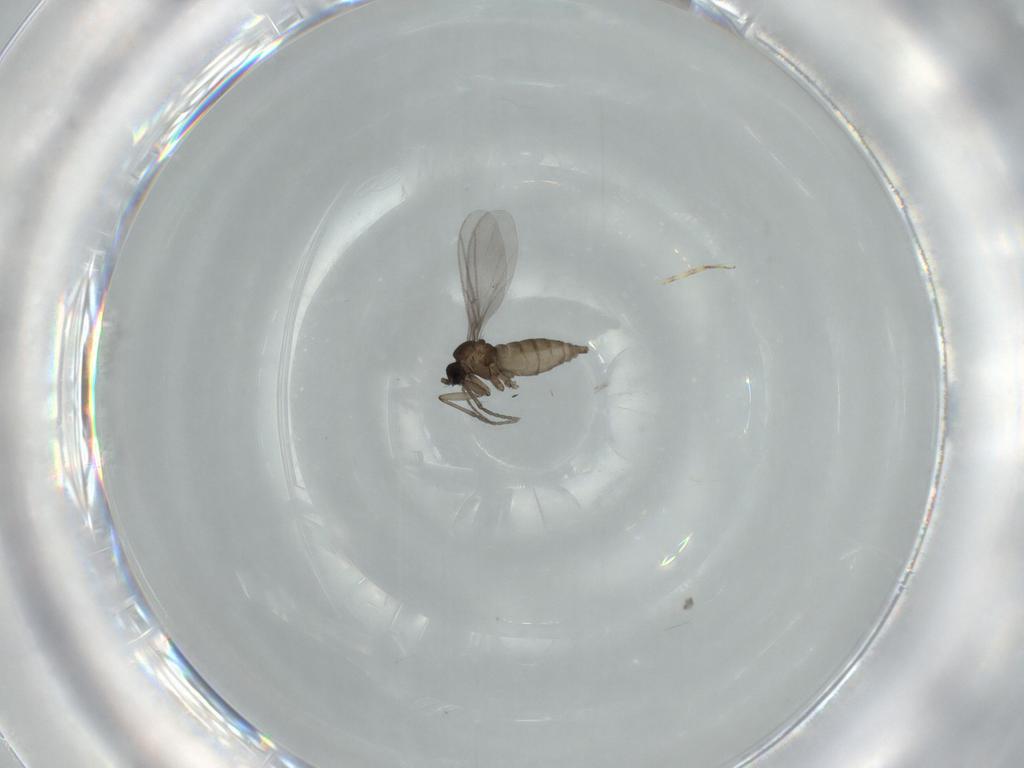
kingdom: Animalia
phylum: Arthropoda
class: Insecta
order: Diptera
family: Sciaridae
